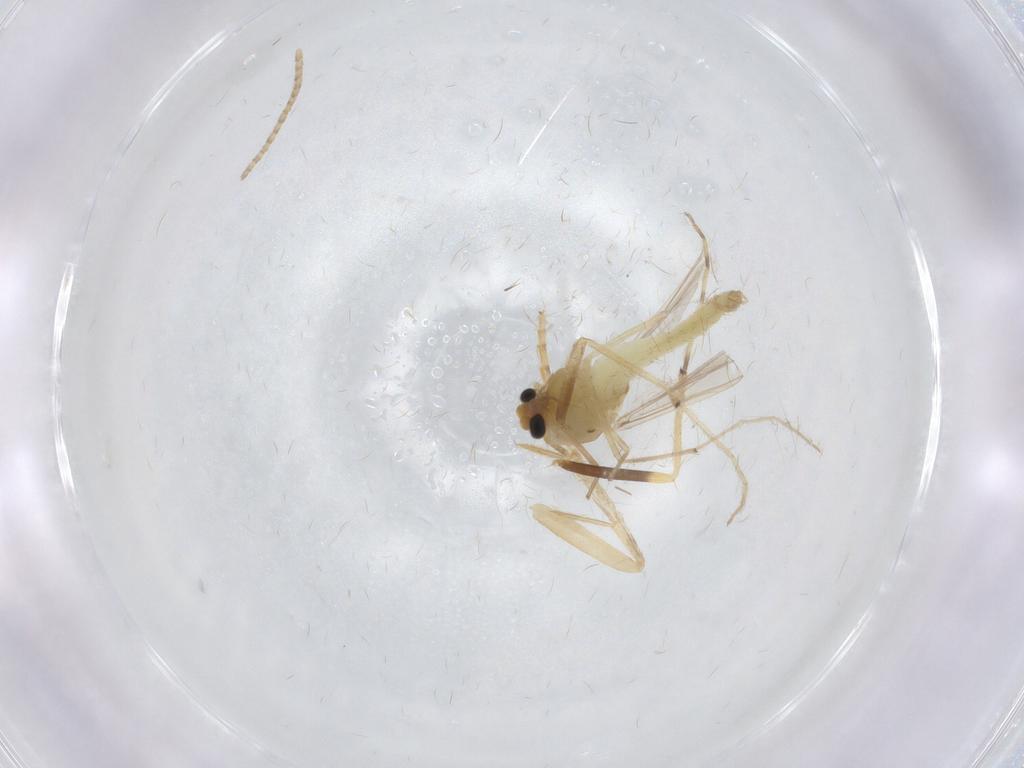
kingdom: Animalia
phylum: Arthropoda
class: Insecta
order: Diptera
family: Chironomidae
